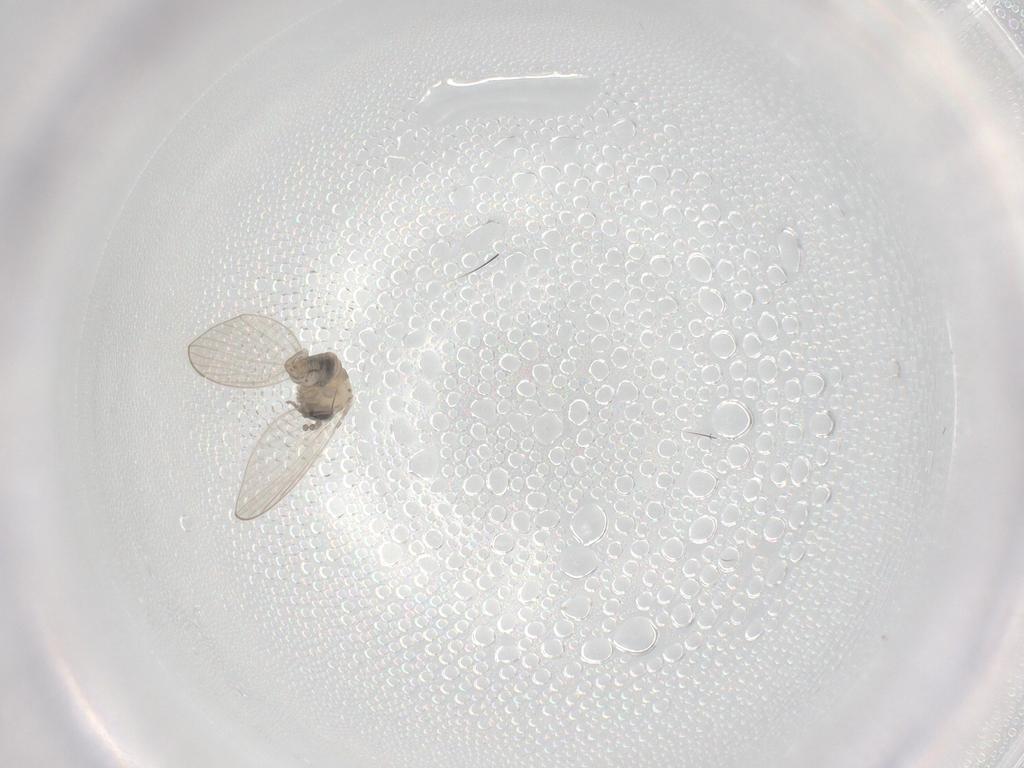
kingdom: Animalia
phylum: Arthropoda
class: Insecta
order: Diptera
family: Psychodidae
